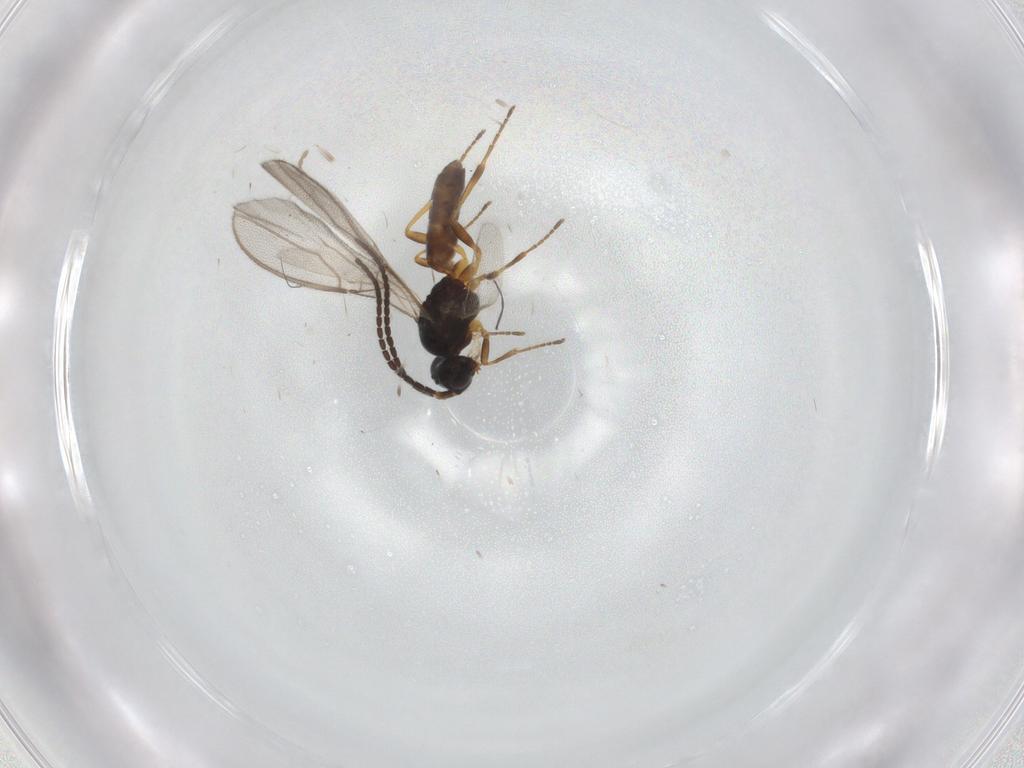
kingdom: Animalia
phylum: Arthropoda
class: Insecta
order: Hymenoptera
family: Braconidae
